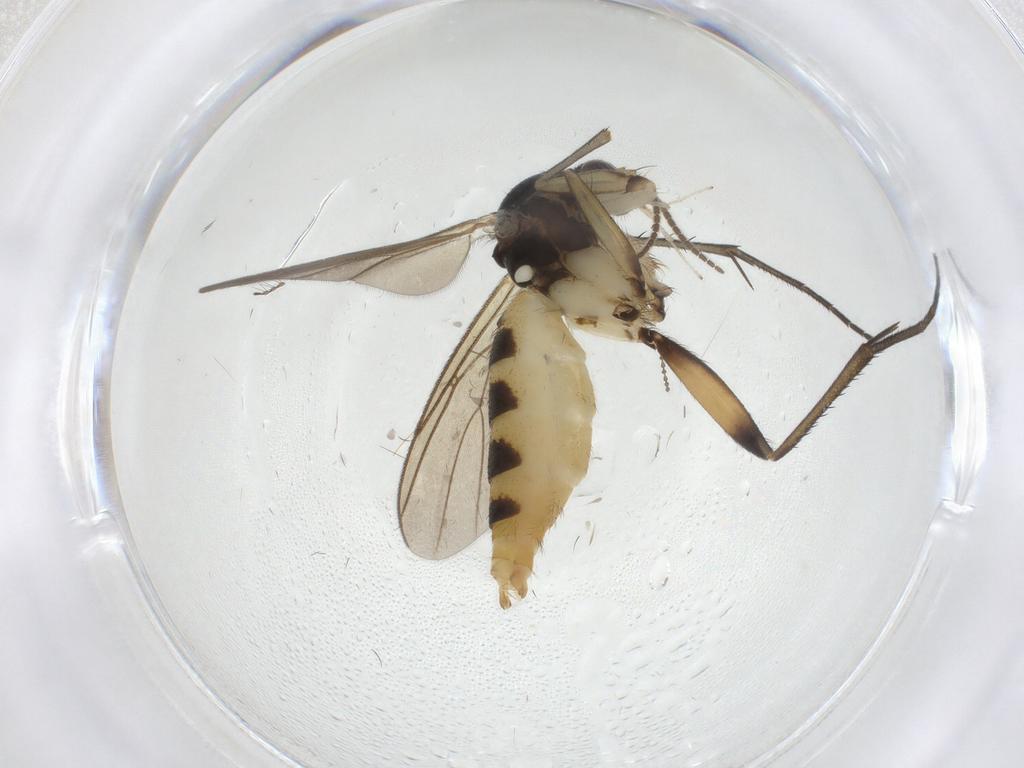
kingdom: Animalia
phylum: Arthropoda
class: Insecta
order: Diptera
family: Mycetophilidae
